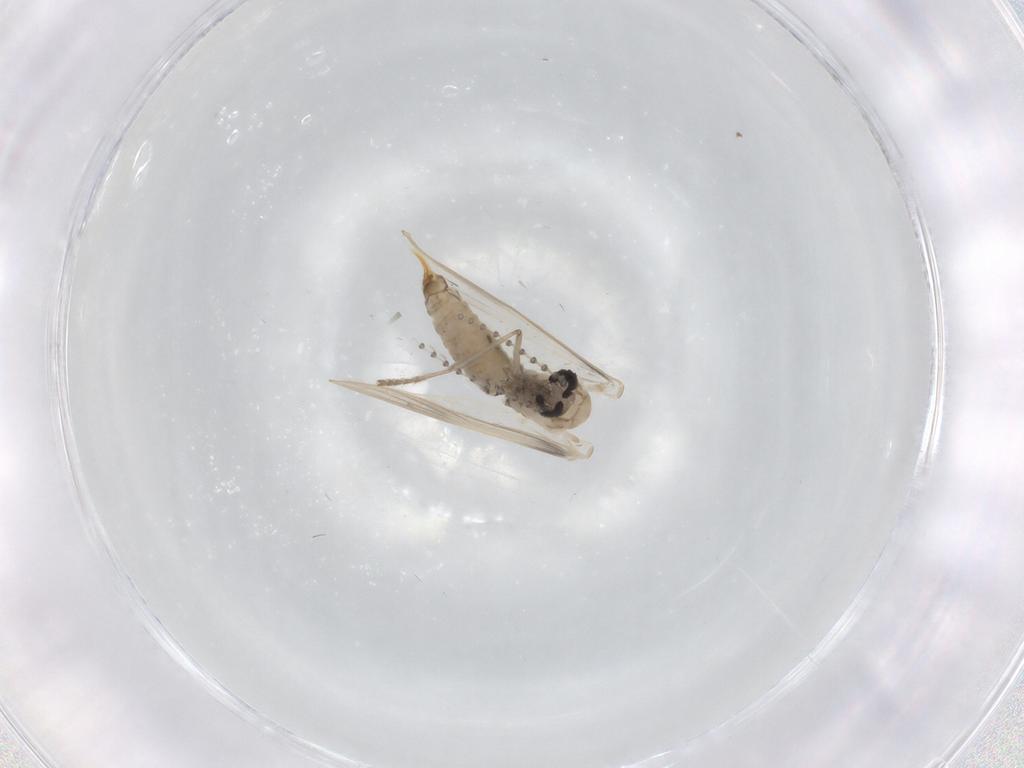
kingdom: Animalia
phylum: Arthropoda
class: Insecta
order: Diptera
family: Psychodidae
